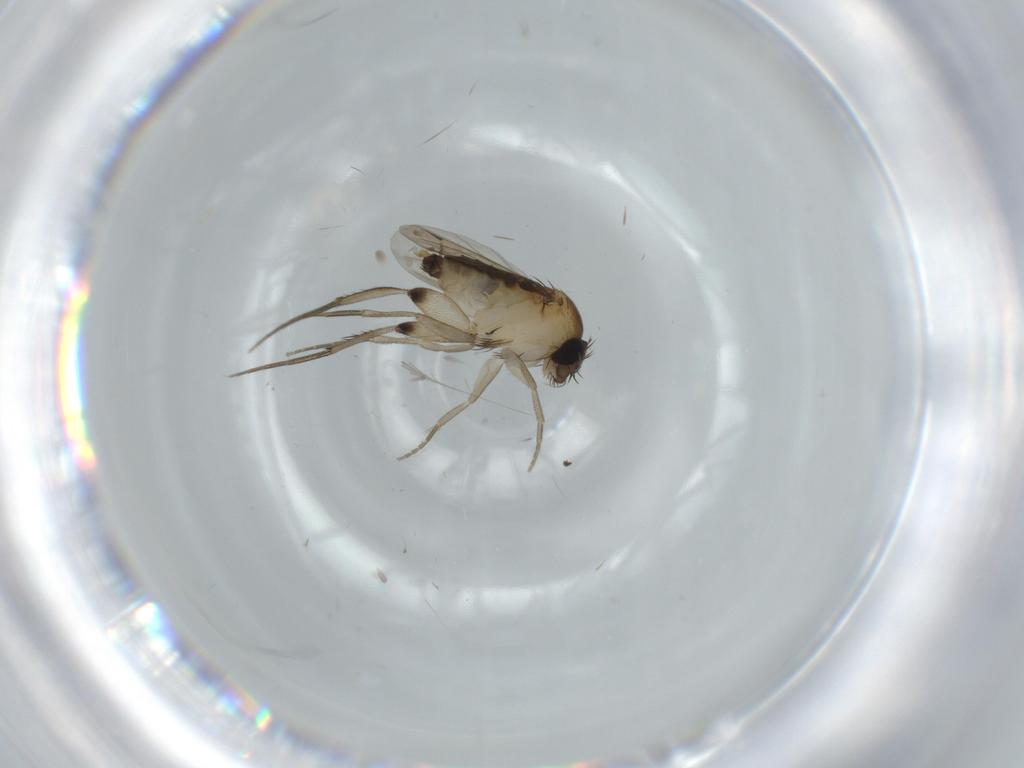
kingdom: Animalia
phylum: Arthropoda
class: Insecta
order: Diptera
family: Phoridae
